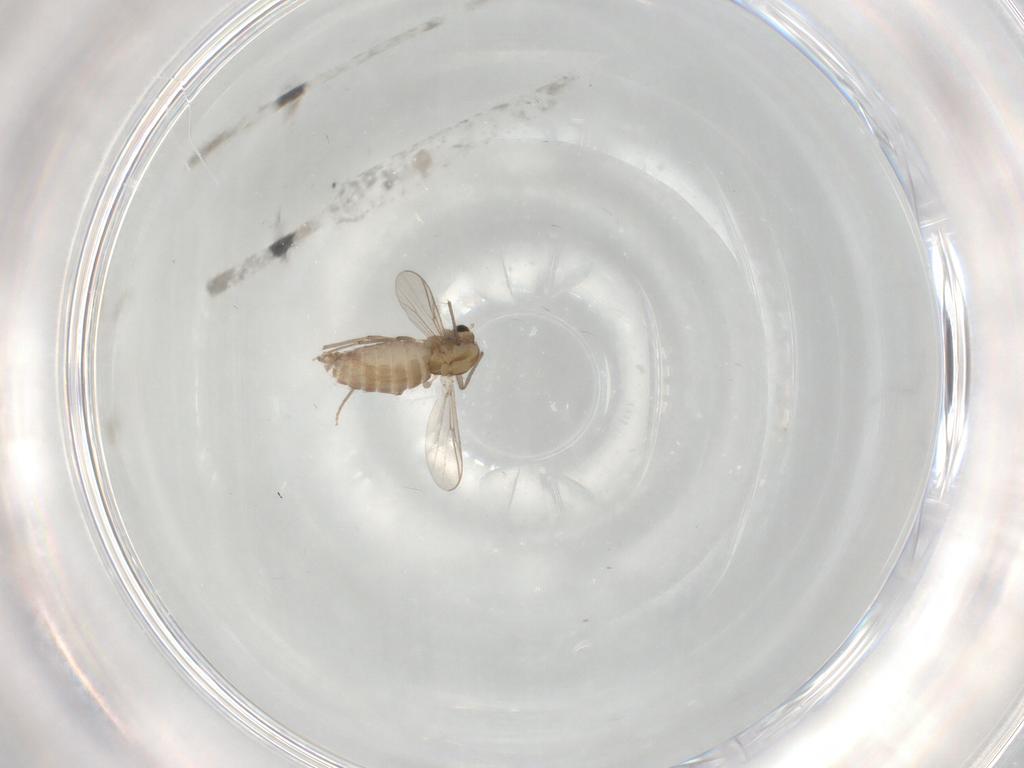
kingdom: Animalia
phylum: Arthropoda
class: Insecta
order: Diptera
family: Chironomidae
